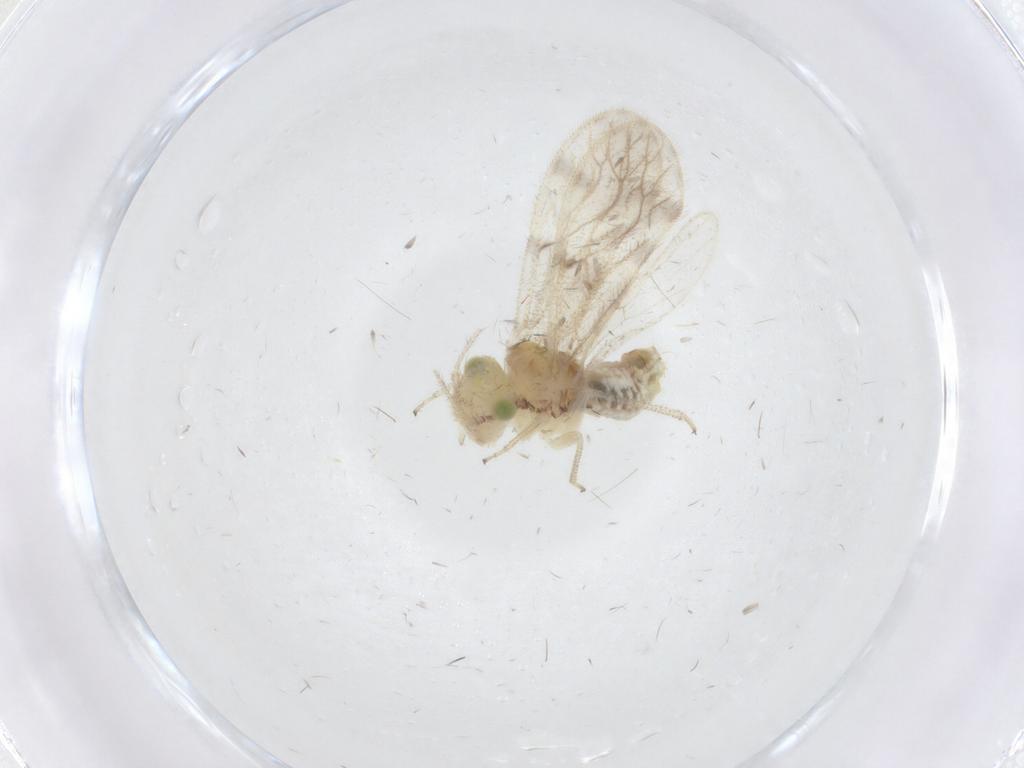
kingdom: Animalia
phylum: Arthropoda
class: Insecta
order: Psocodea
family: Pseudocaeciliidae
